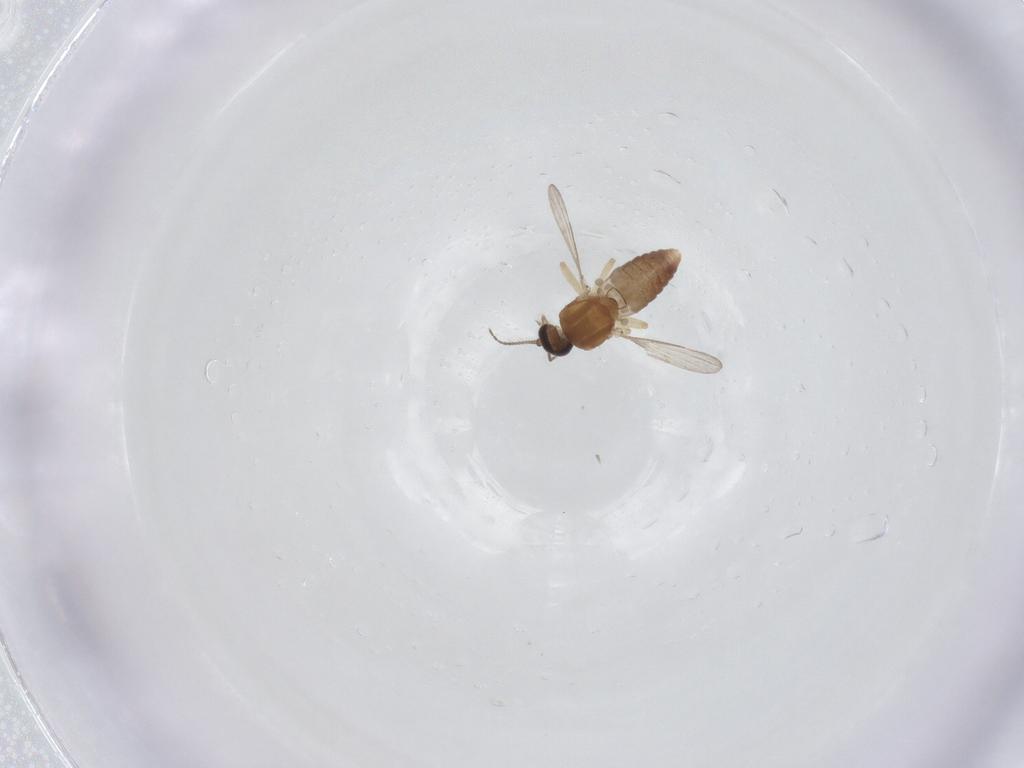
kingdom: Animalia
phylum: Arthropoda
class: Insecta
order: Diptera
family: Ceratopogonidae
